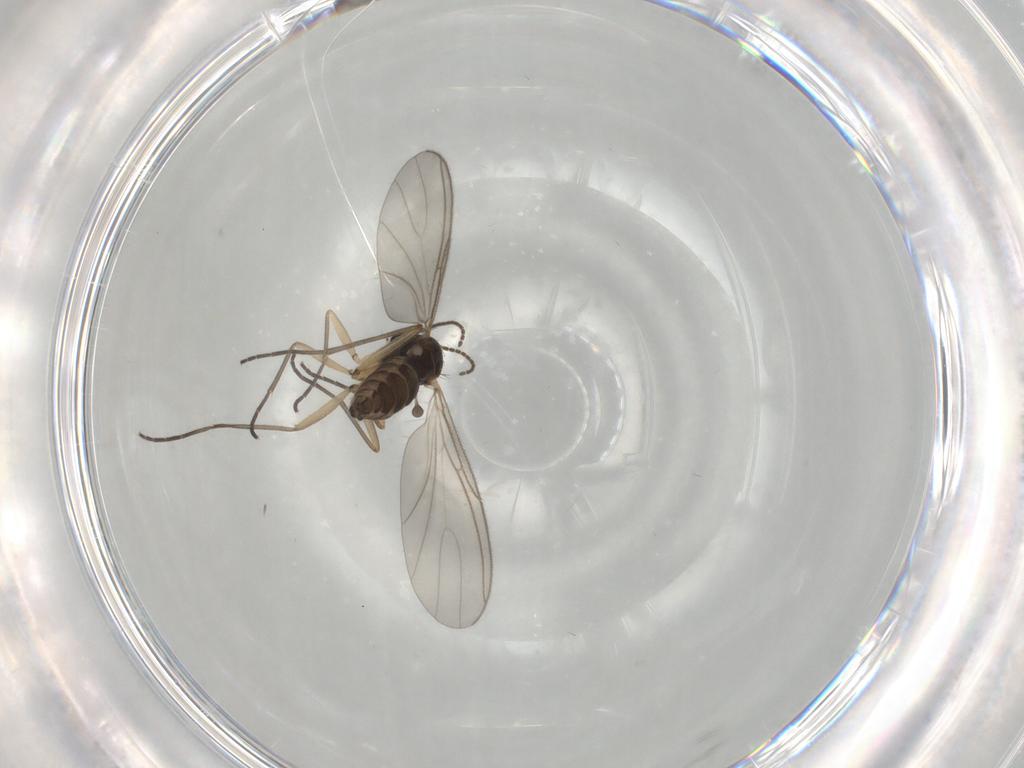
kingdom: Animalia
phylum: Arthropoda
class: Insecta
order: Diptera
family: Sciaridae
